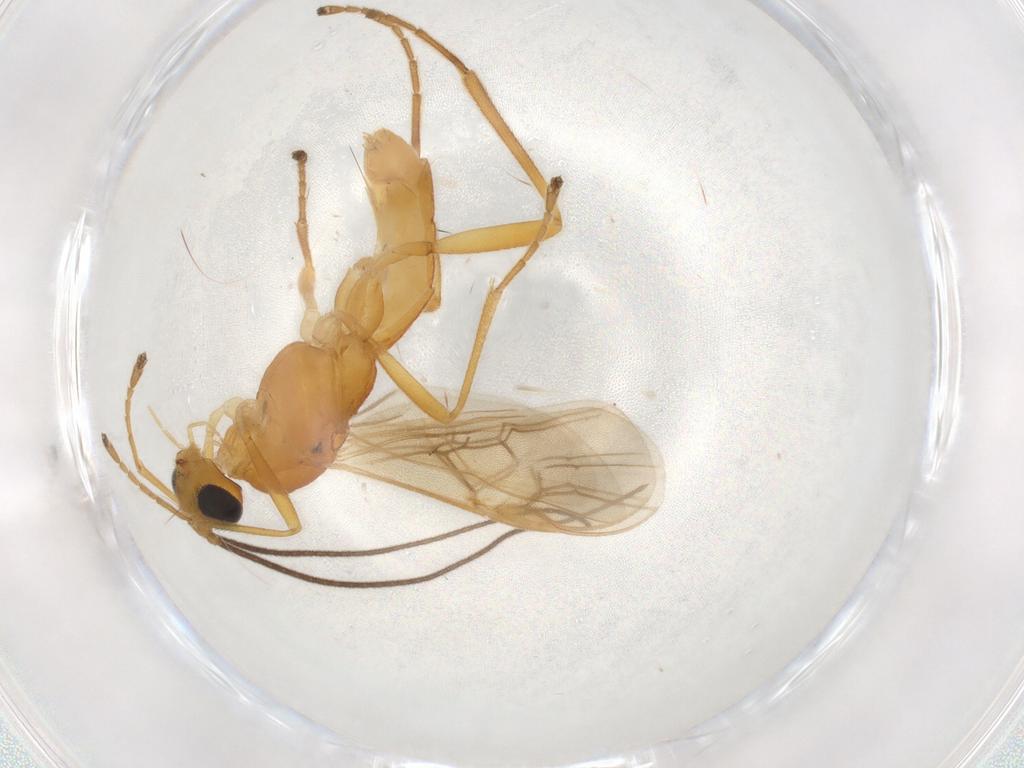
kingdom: Animalia
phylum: Arthropoda
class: Insecta
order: Hymenoptera
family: Braconidae
